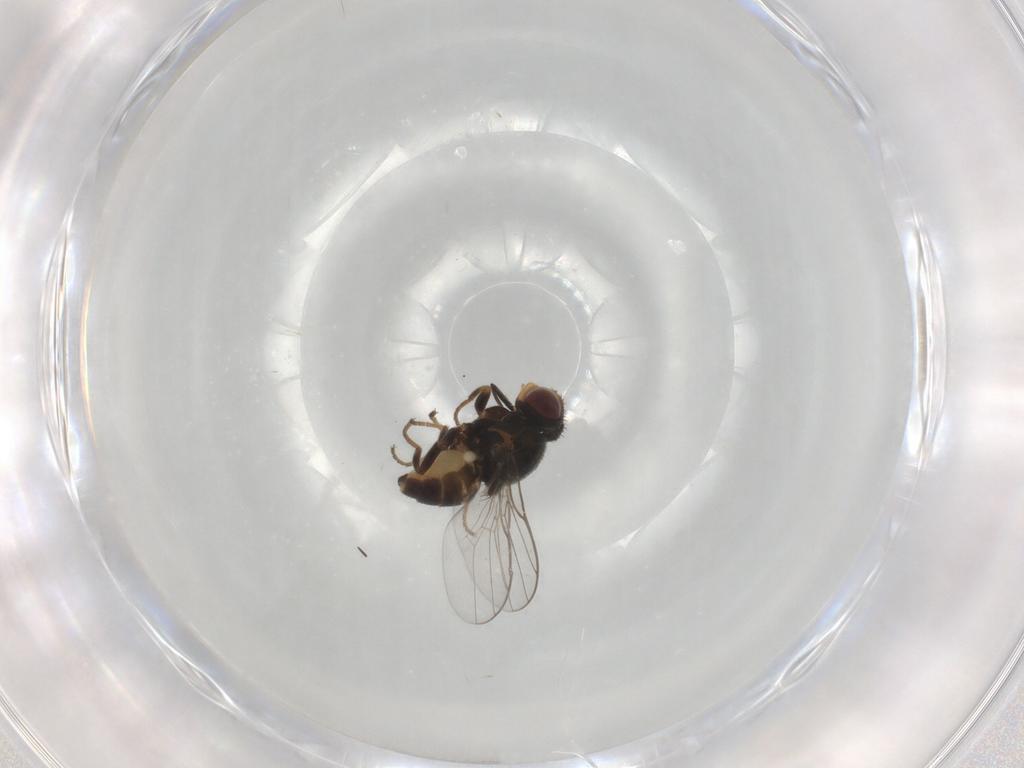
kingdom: Animalia
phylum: Arthropoda
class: Insecta
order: Diptera
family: Chloropidae
